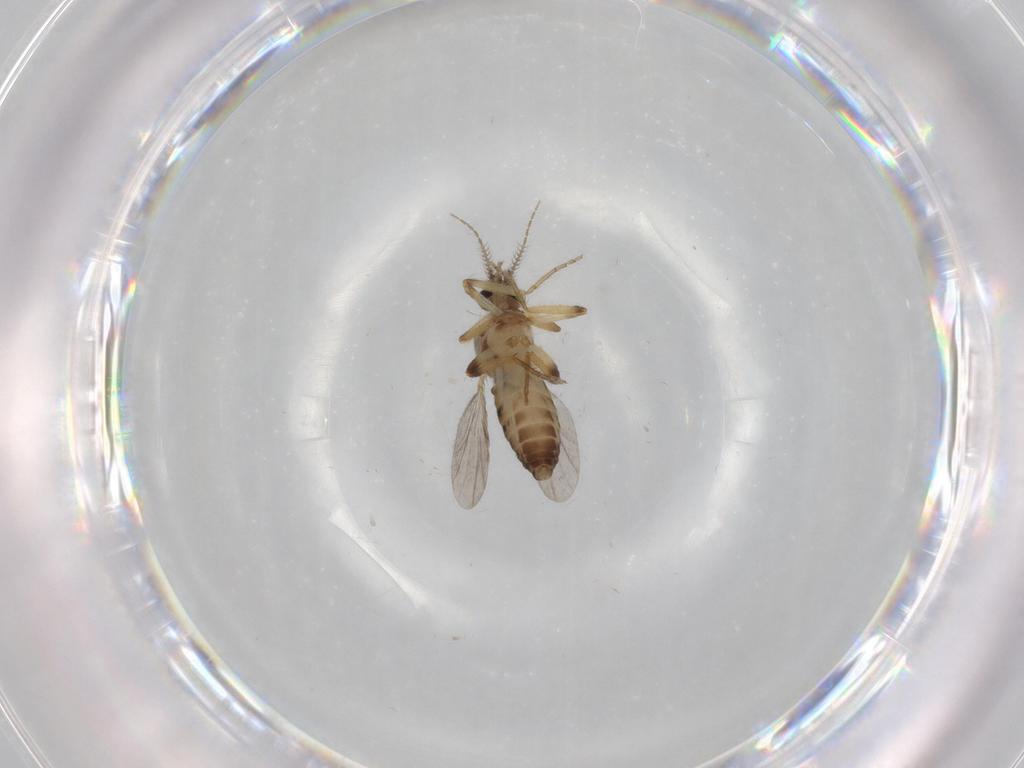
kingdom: Animalia
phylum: Arthropoda
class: Insecta
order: Diptera
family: Ceratopogonidae
